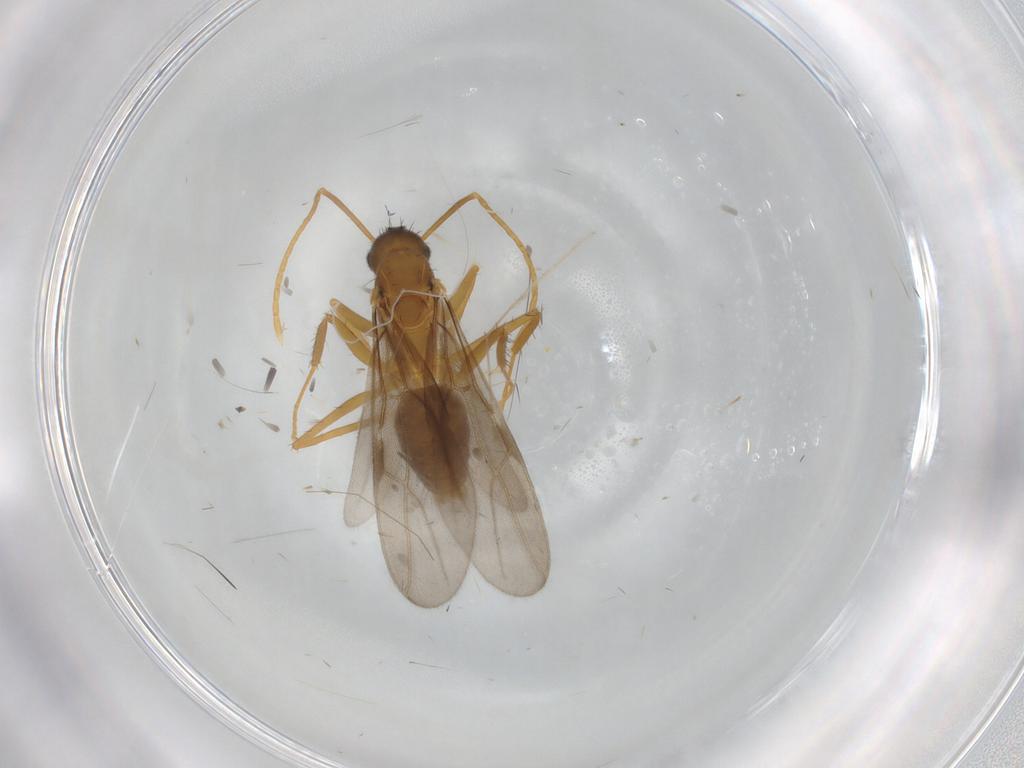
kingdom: Animalia
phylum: Arthropoda
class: Insecta
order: Hymenoptera
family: Formicidae
